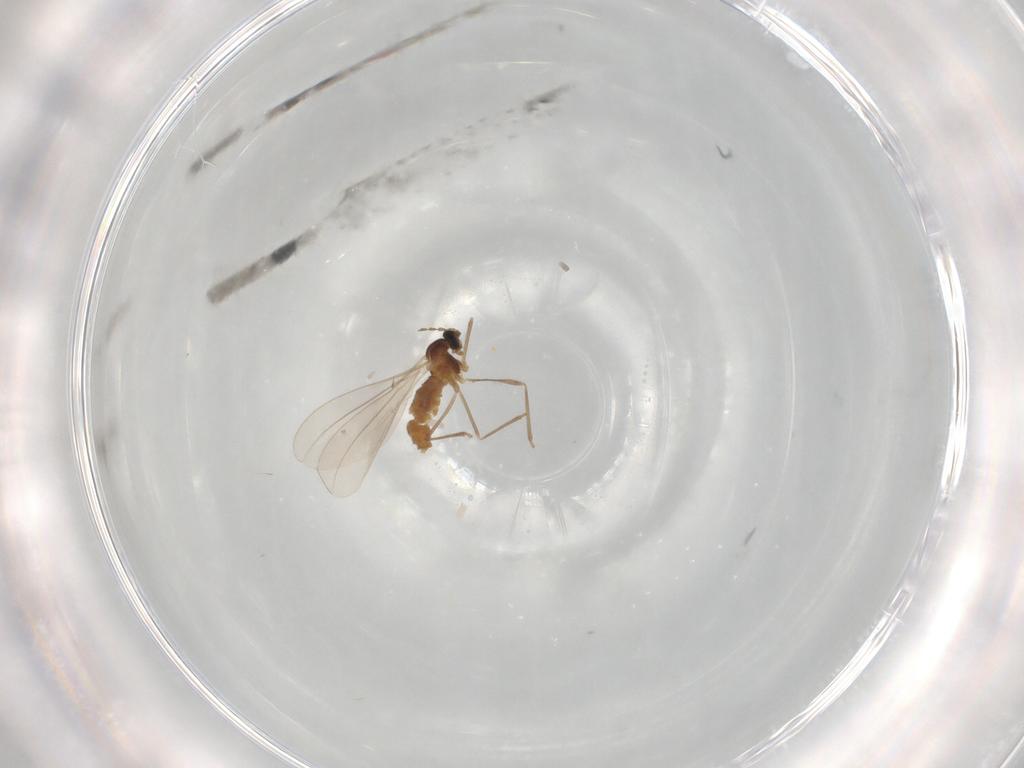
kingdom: Animalia
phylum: Arthropoda
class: Insecta
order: Diptera
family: Cecidomyiidae
